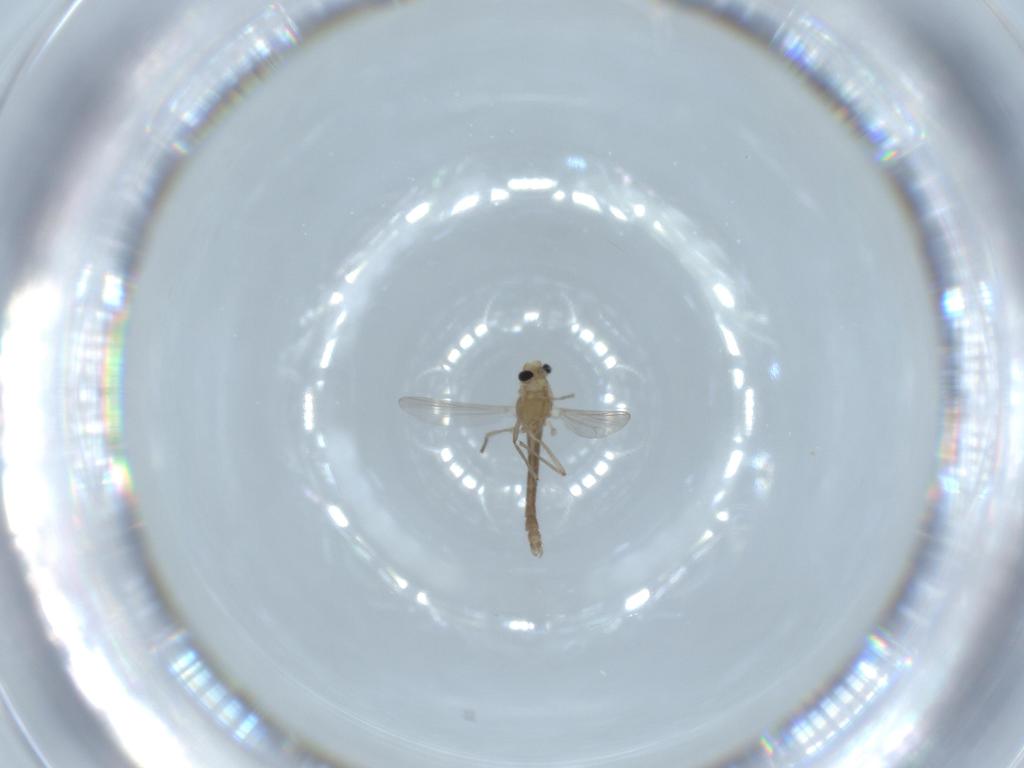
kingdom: Animalia
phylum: Arthropoda
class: Insecta
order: Diptera
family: Chironomidae
